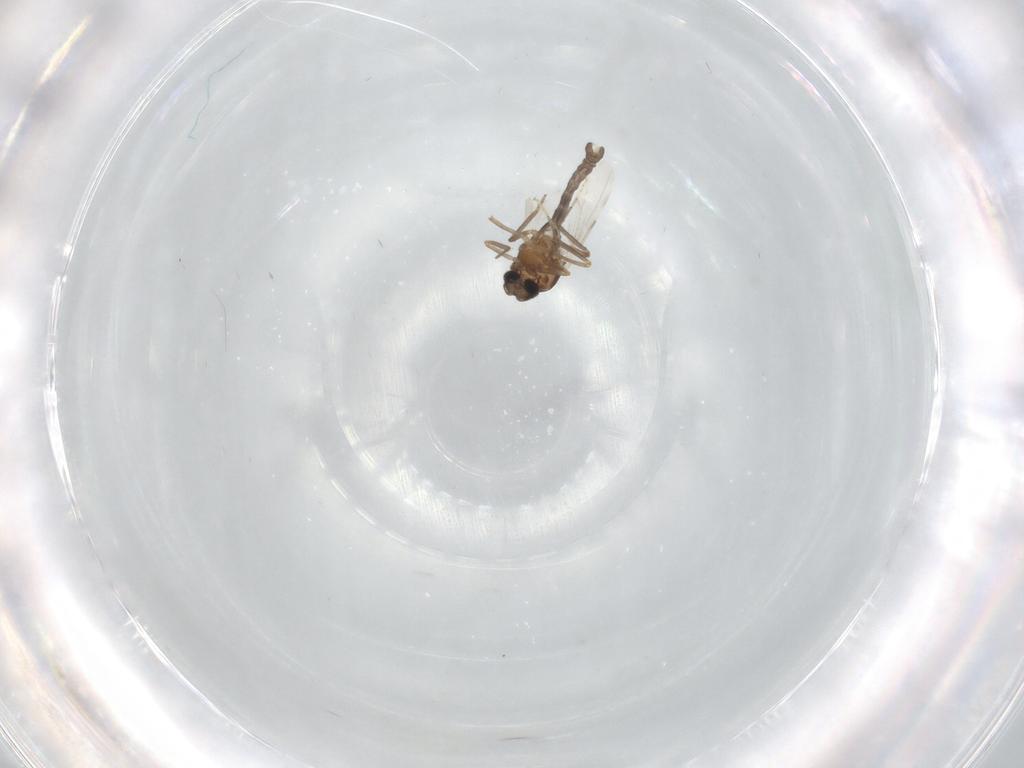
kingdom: Animalia
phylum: Arthropoda
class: Insecta
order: Diptera
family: Ceratopogonidae
